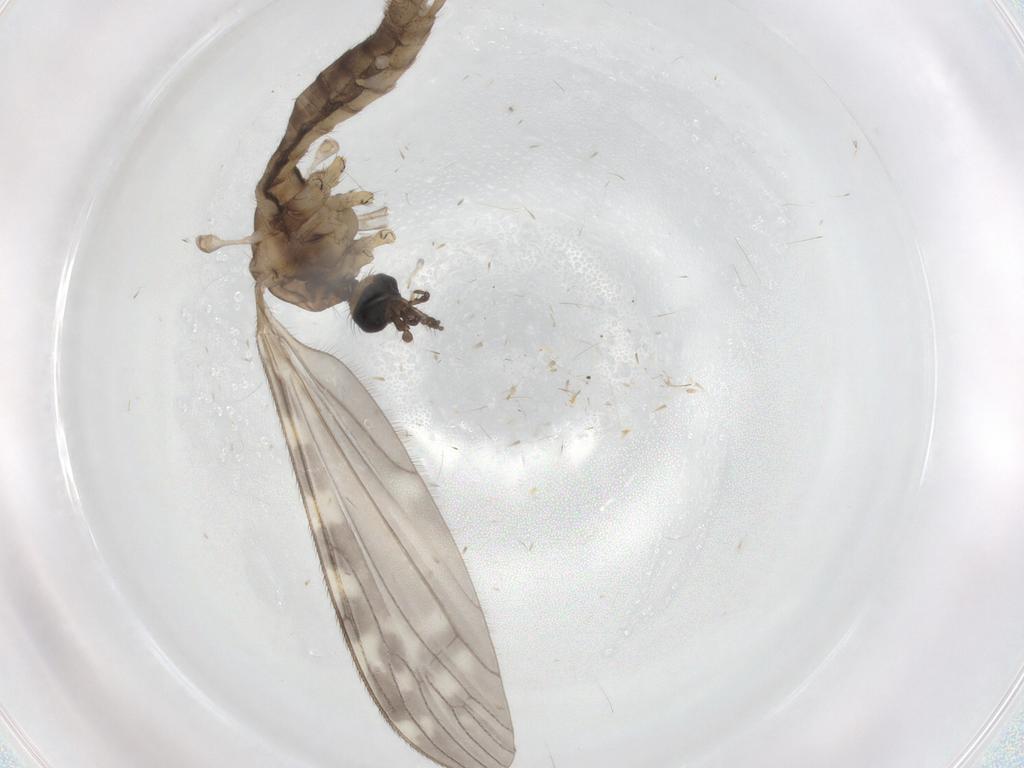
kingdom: Animalia
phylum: Arthropoda
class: Insecta
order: Diptera
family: Limoniidae
